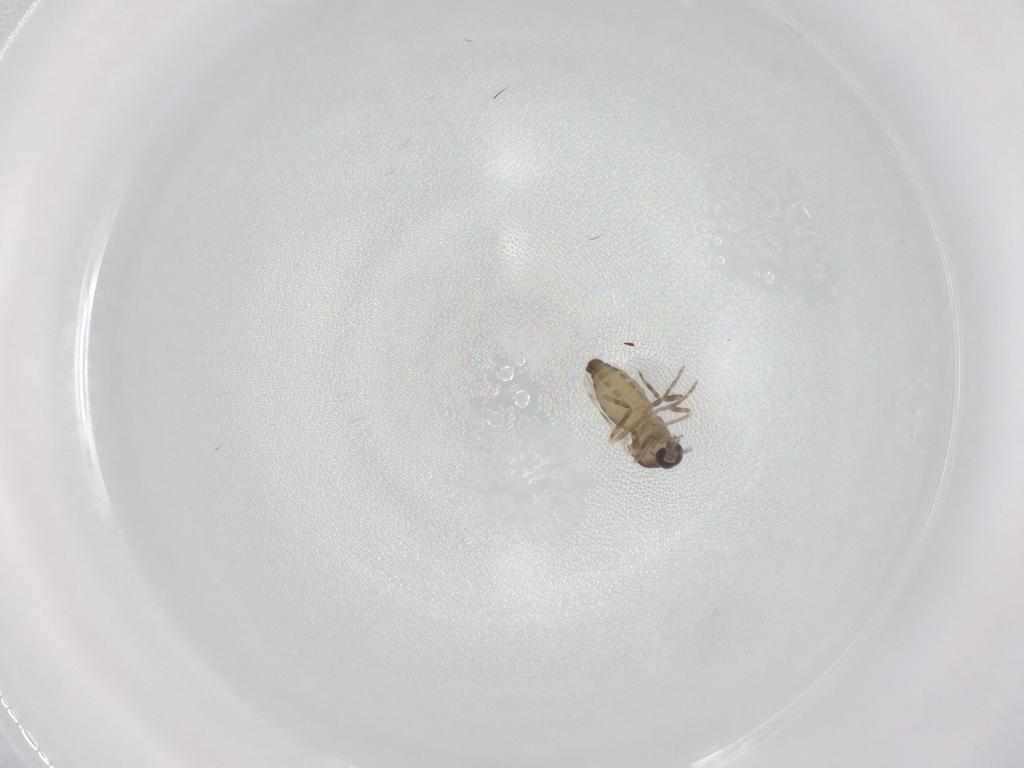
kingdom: Animalia
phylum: Arthropoda
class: Insecta
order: Diptera
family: Ceratopogonidae
